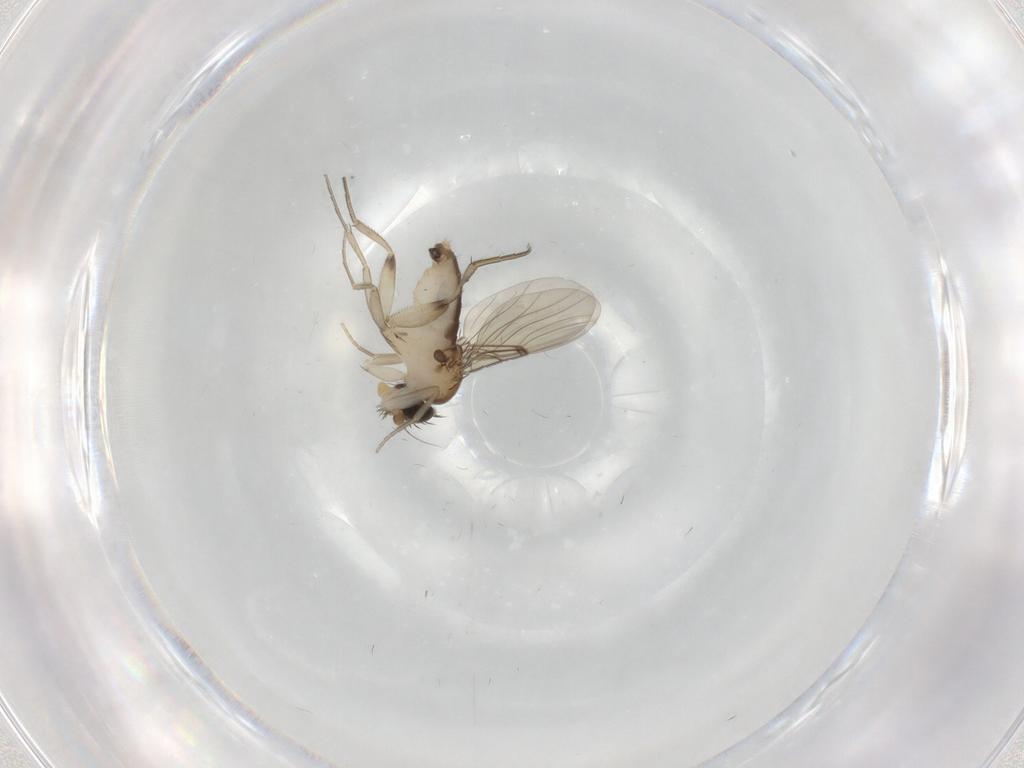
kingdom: Animalia
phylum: Arthropoda
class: Insecta
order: Diptera
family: Phoridae
